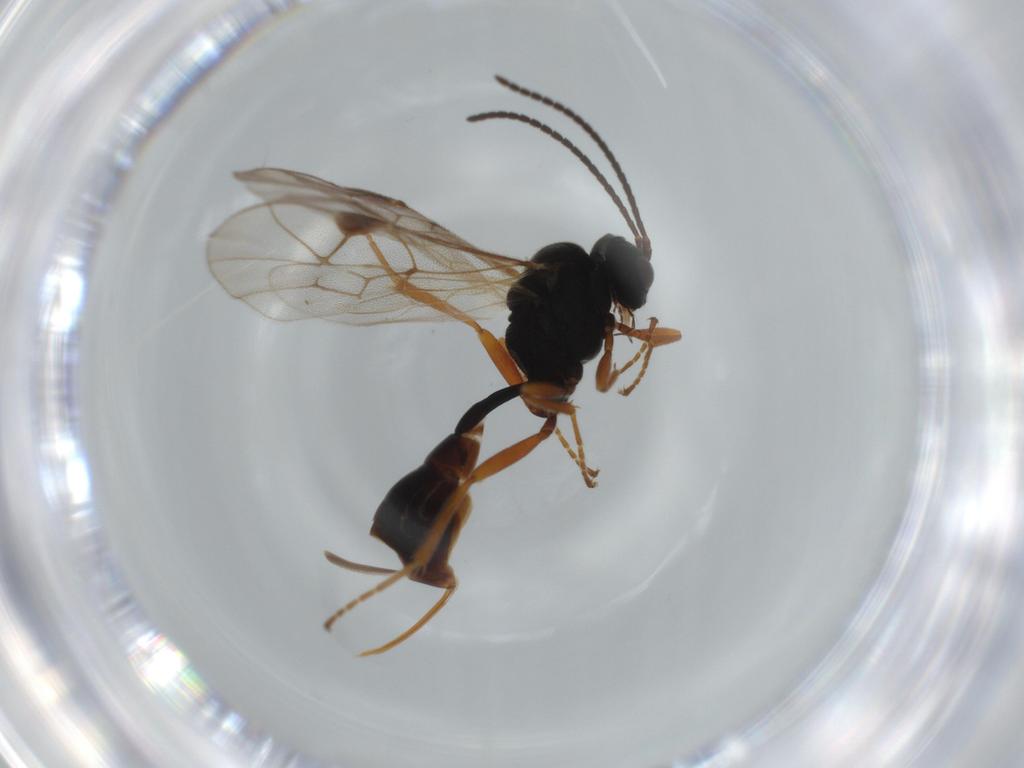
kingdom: Animalia
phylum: Arthropoda
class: Insecta
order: Hymenoptera
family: Ichneumonidae
